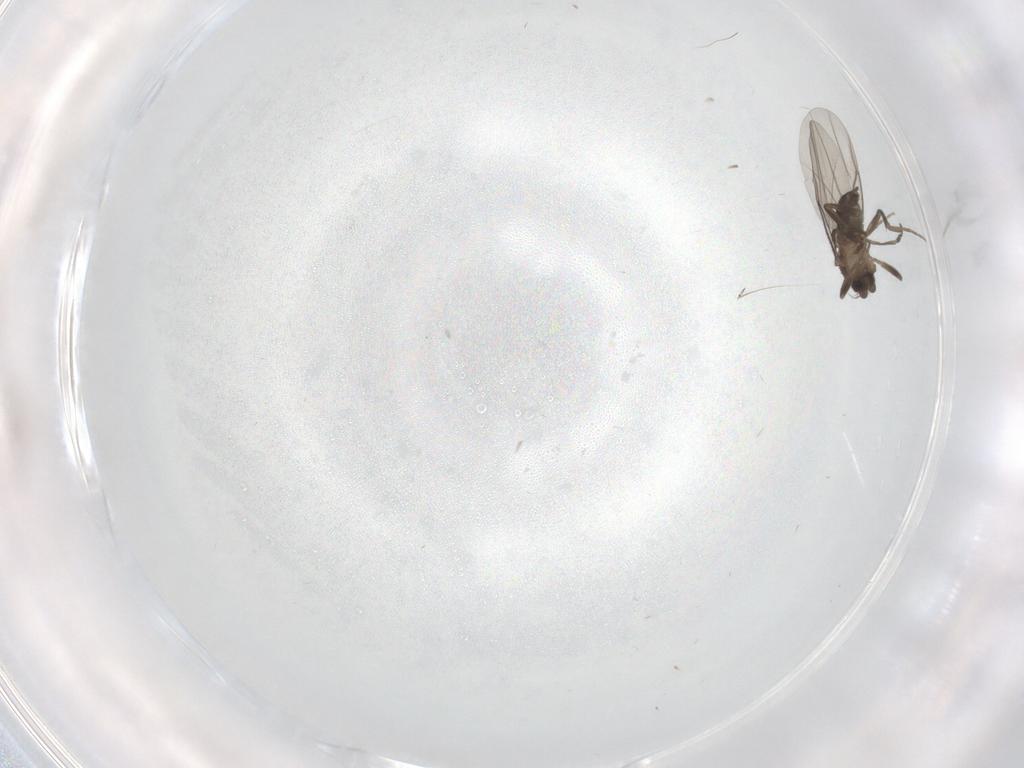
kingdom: Animalia
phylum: Arthropoda
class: Insecta
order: Diptera
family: Phoridae
